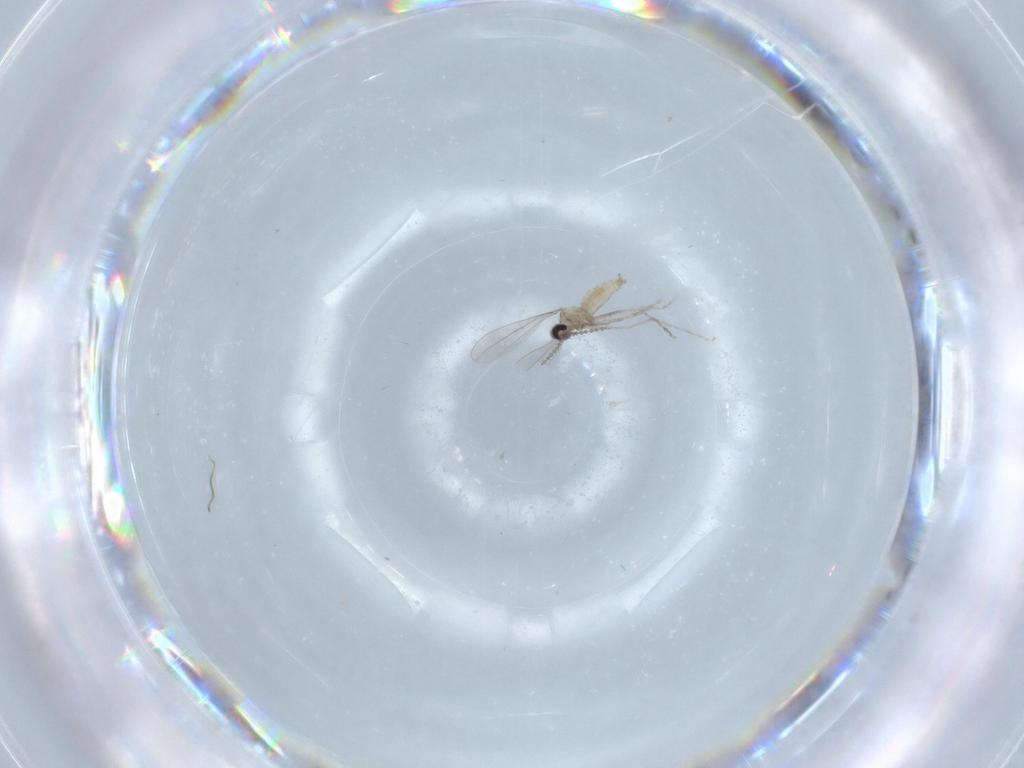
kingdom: Animalia
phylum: Arthropoda
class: Insecta
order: Diptera
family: Cecidomyiidae
